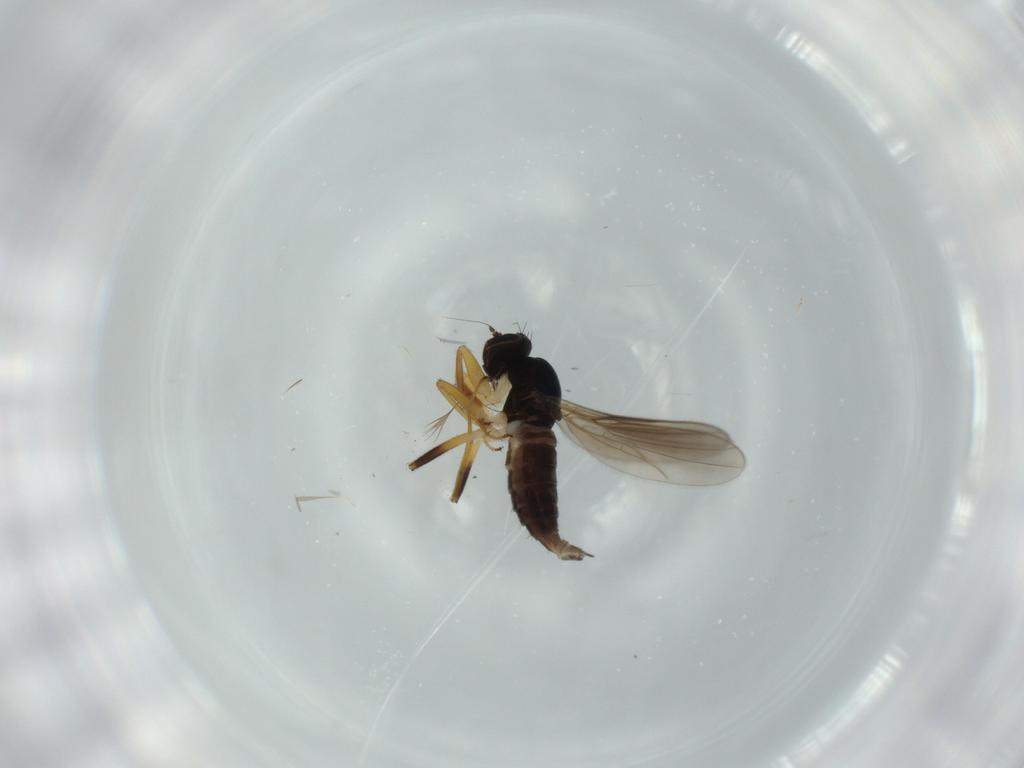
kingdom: Animalia
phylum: Arthropoda
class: Insecta
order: Diptera
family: Hybotidae
